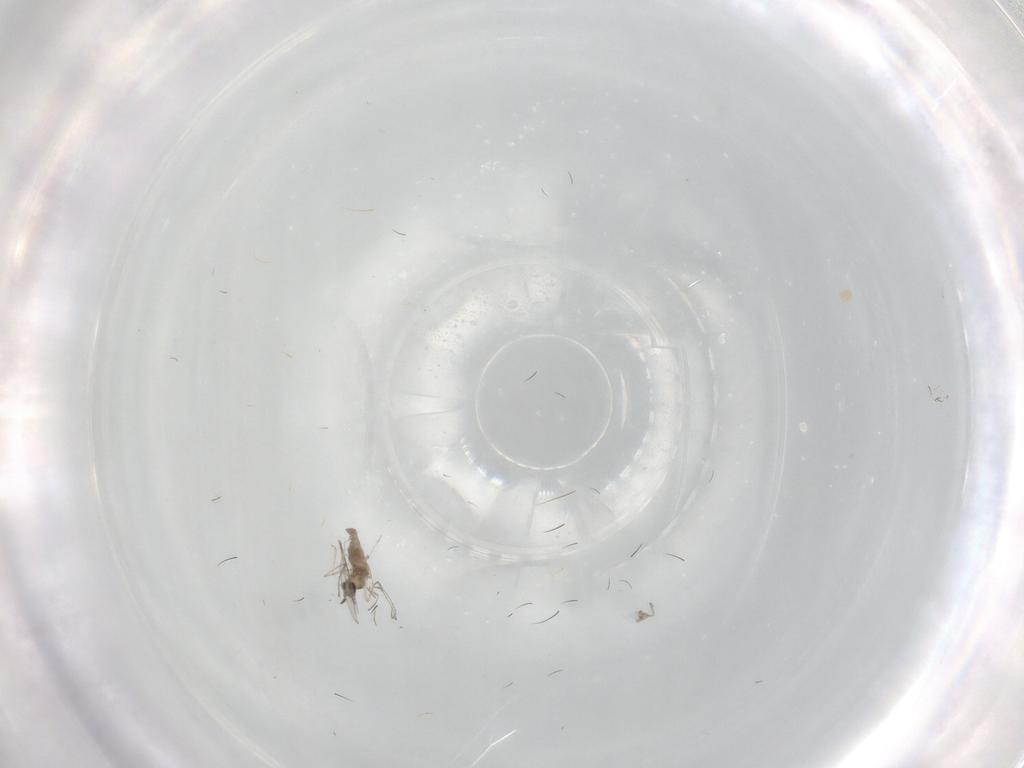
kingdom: Animalia
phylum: Arthropoda
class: Insecta
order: Diptera
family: Cecidomyiidae
